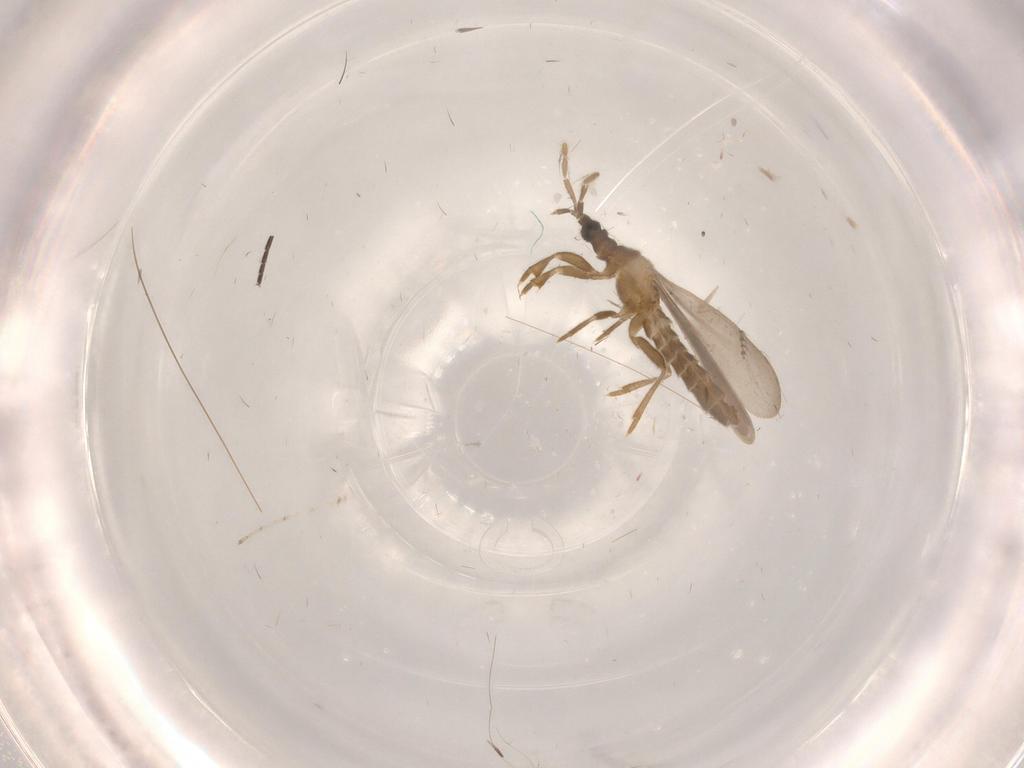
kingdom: Animalia
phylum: Arthropoda
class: Insecta
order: Hemiptera
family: Enicocephalidae
